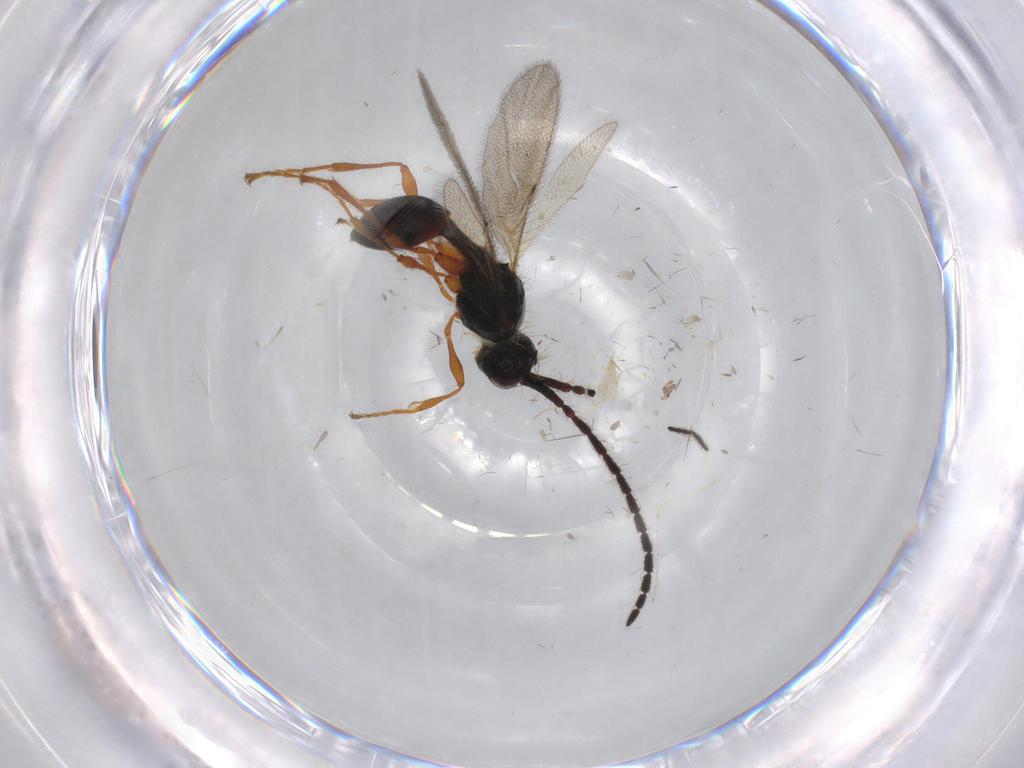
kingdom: Animalia
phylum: Arthropoda
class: Insecta
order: Hymenoptera
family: Diapriidae
